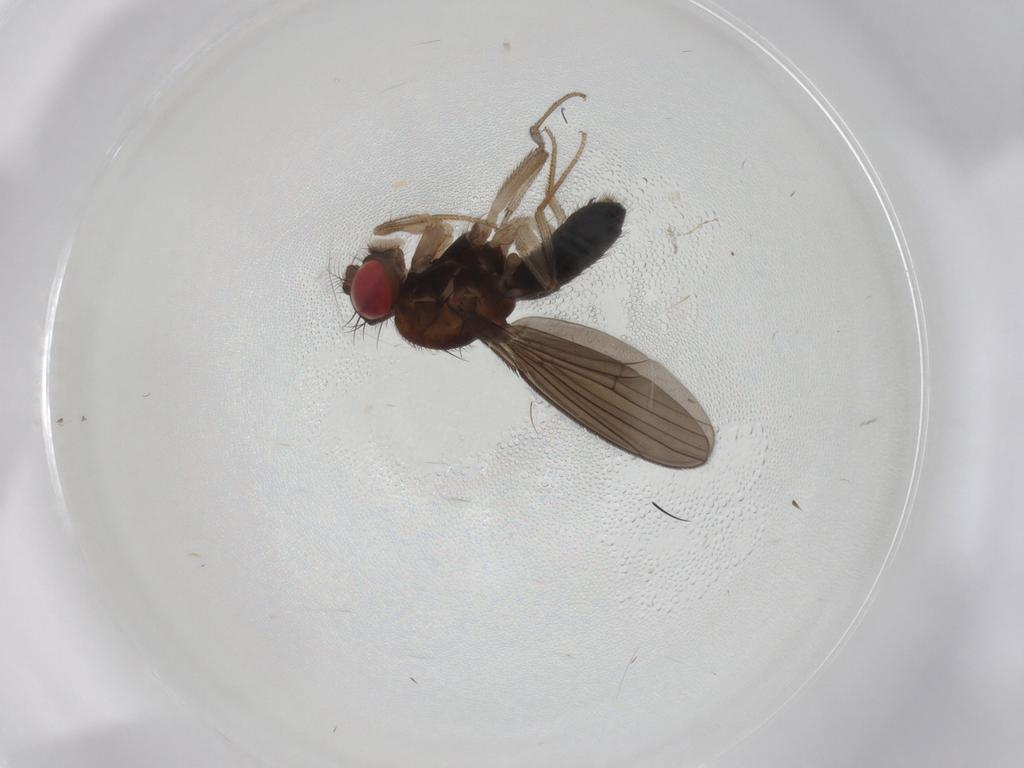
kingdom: Animalia
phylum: Arthropoda
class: Insecta
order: Diptera
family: Drosophilidae
